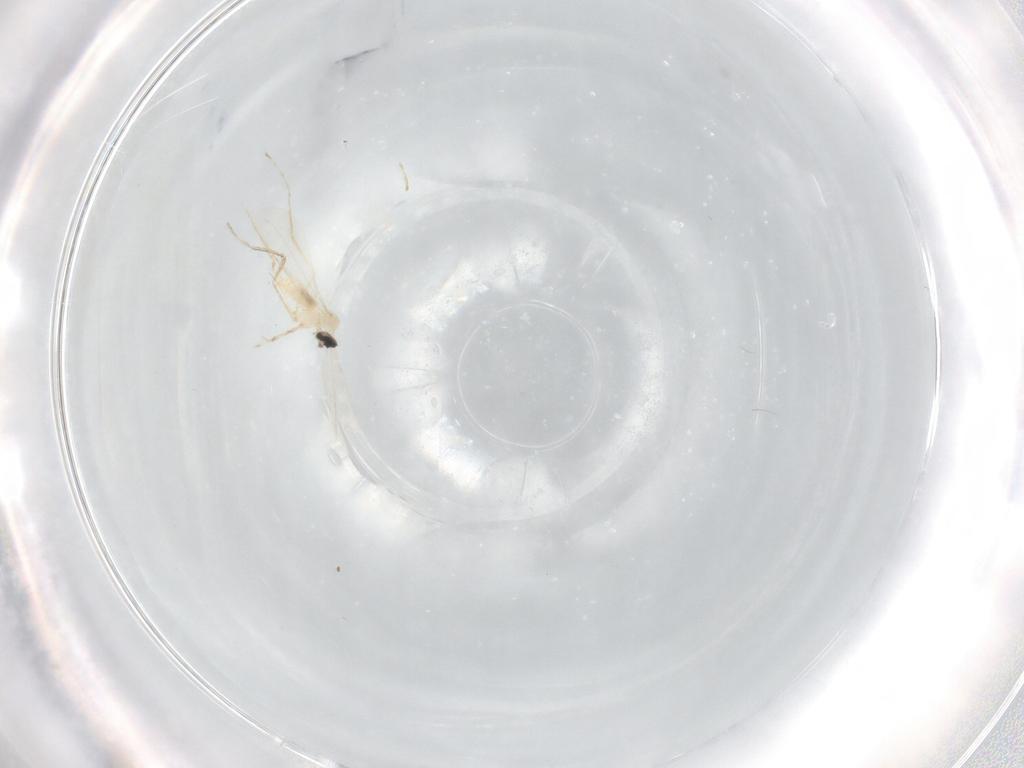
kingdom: Animalia
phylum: Arthropoda
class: Insecta
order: Diptera
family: Cecidomyiidae
